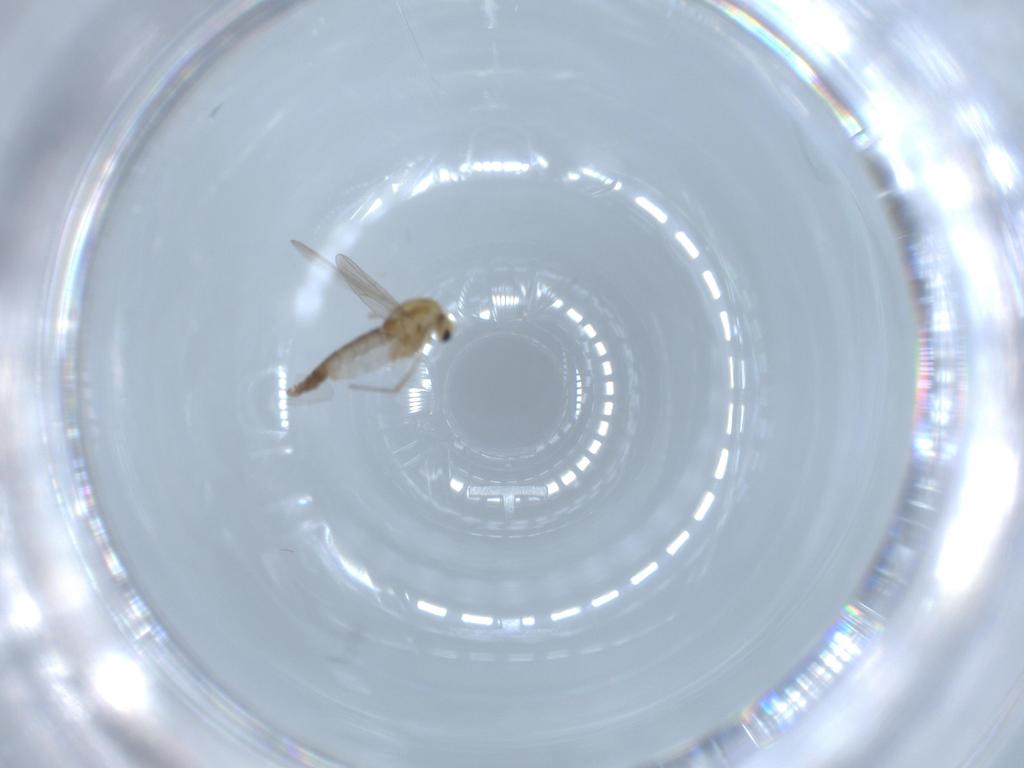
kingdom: Animalia
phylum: Arthropoda
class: Insecta
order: Diptera
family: Chironomidae
